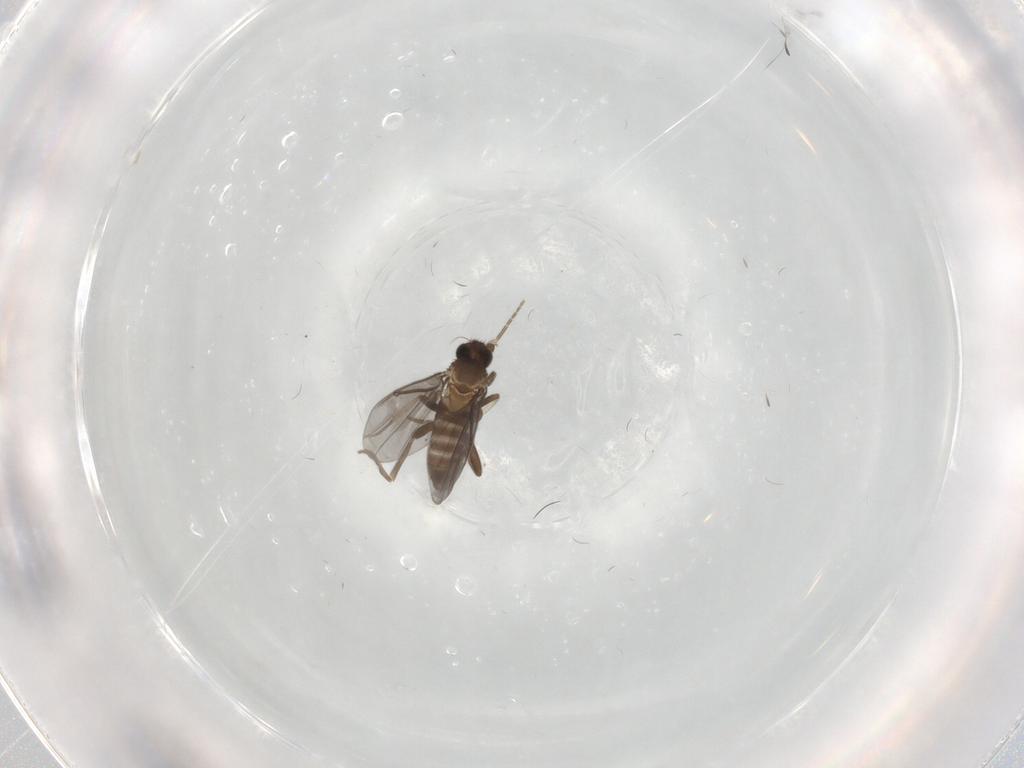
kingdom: Animalia
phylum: Arthropoda
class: Insecta
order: Diptera
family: Phoridae
